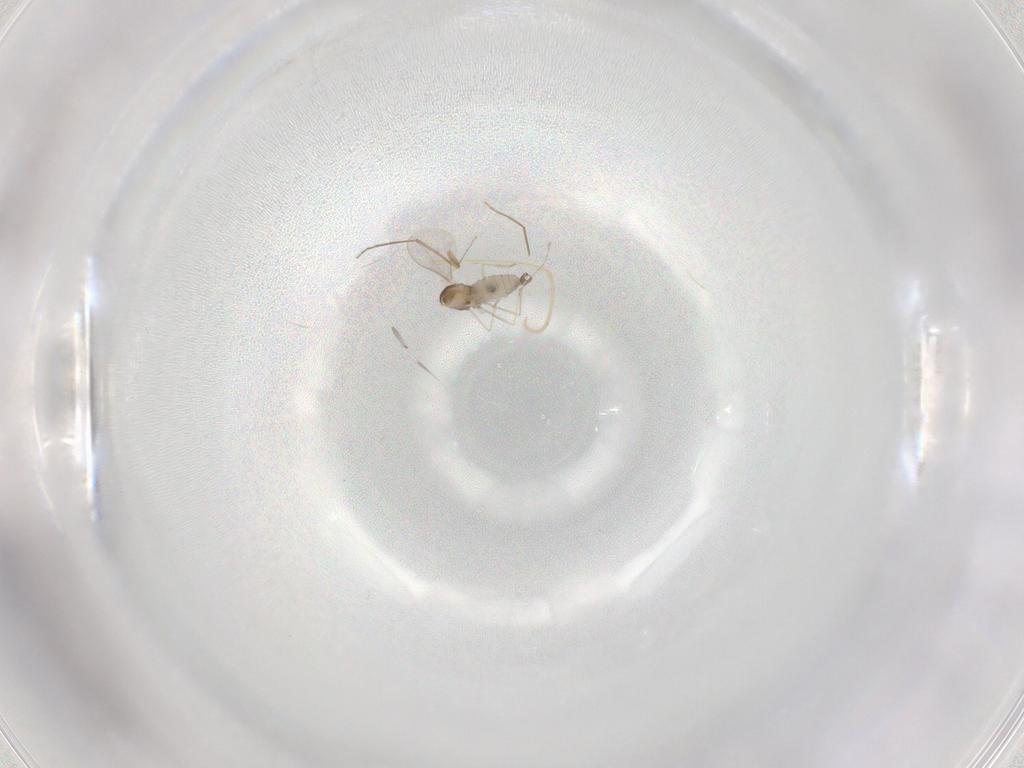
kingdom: Animalia
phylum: Arthropoda
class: Insecta
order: Diptera
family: Cecidomyiidae
